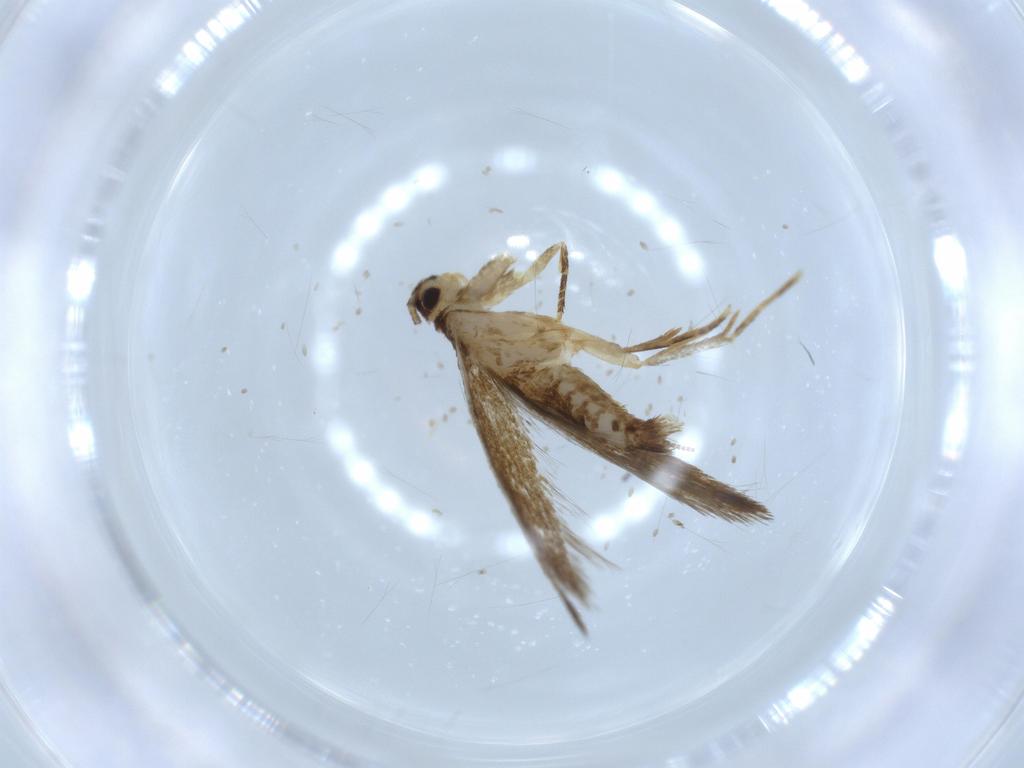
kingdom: Animalia
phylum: Arthropoda
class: Insecta
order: Lepidoptera
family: Tineidae
